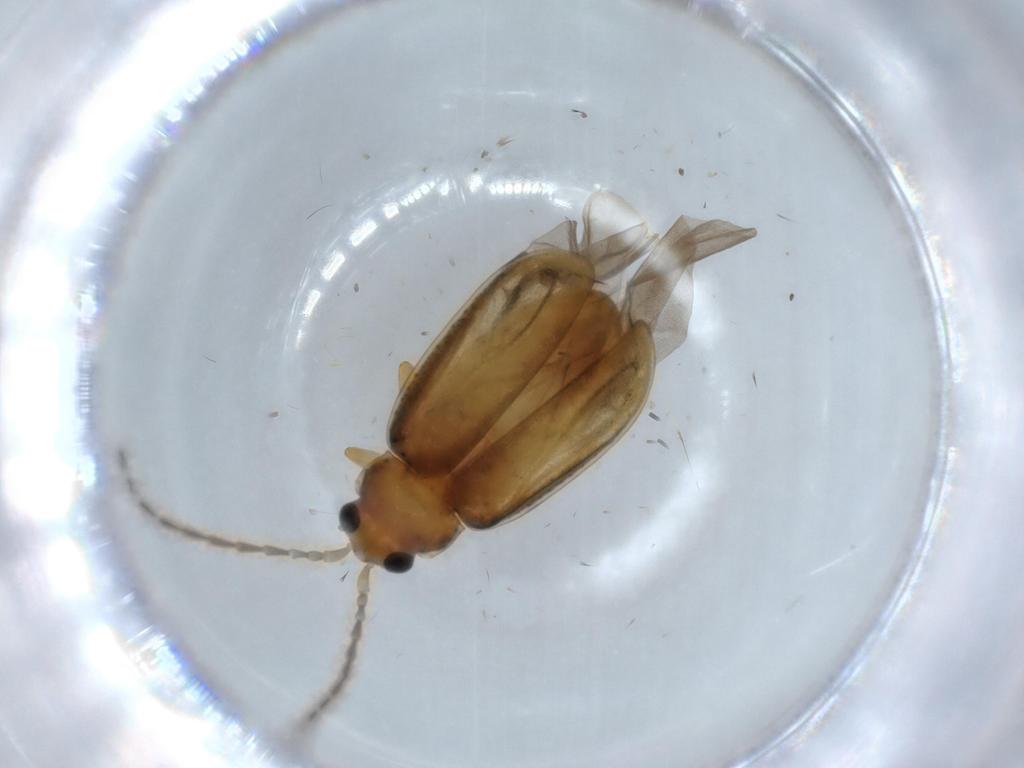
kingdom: Animalia
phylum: Arthropoda
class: Insecta
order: Coleoptera
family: Chrysomelidae
